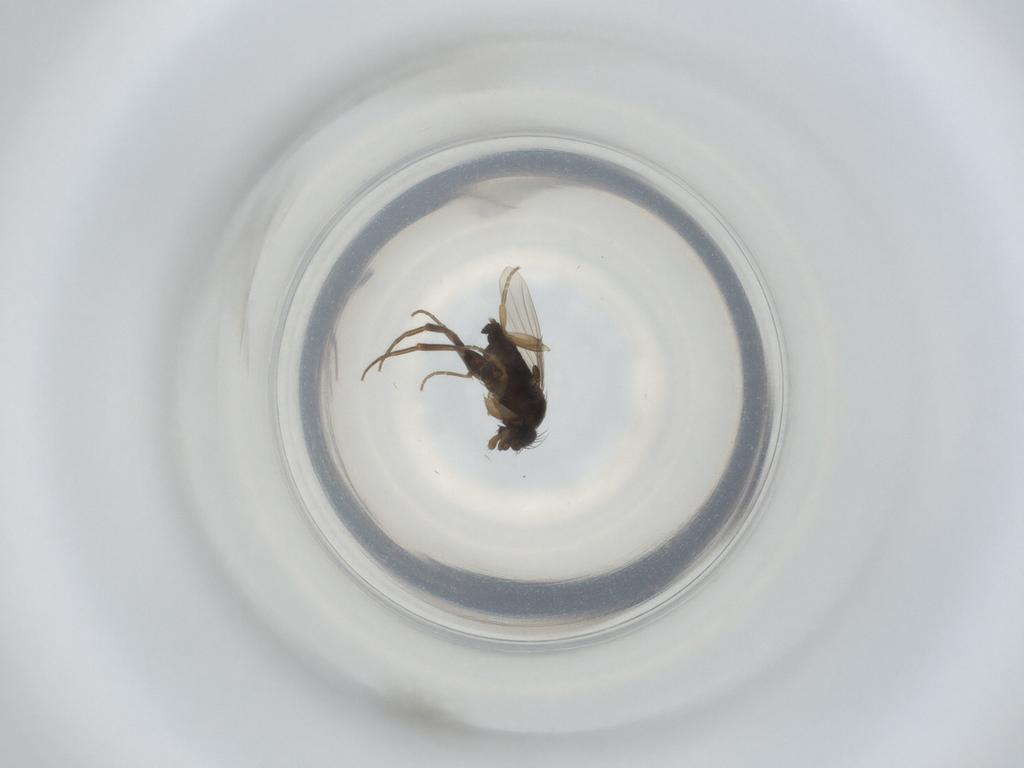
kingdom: Animalia
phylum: Arthropoda
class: Insecta
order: Diptera
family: Phoridae
